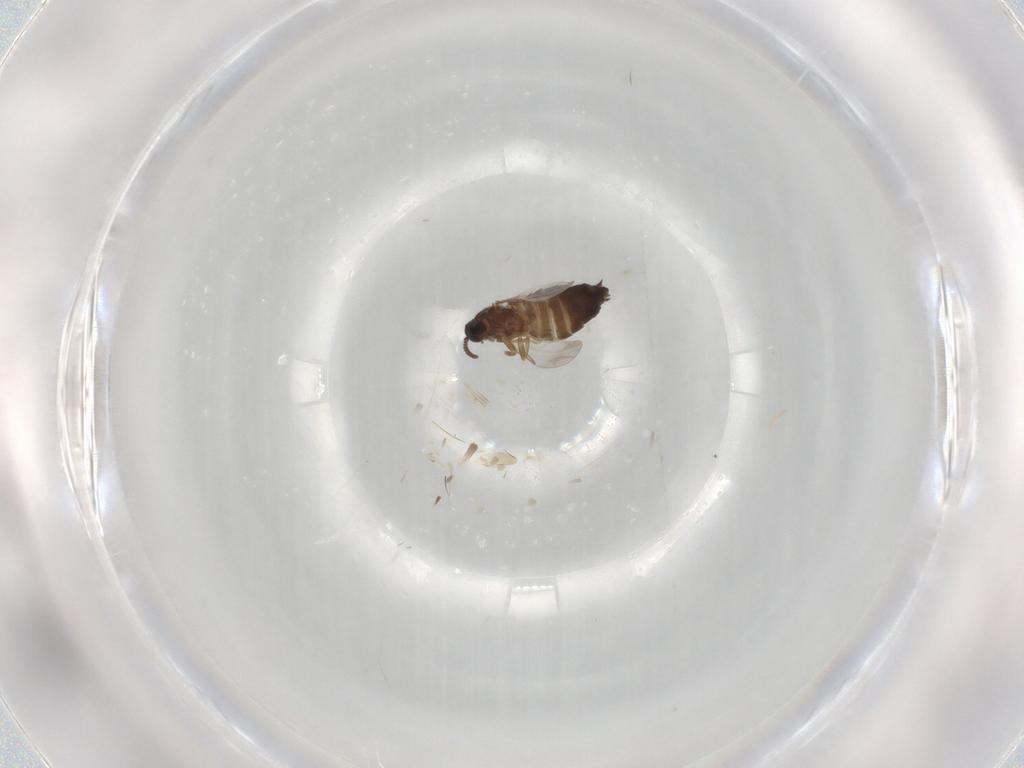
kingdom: Animalia
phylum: Arthropoda
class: Insecta
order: Diptera
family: Scatopsidae
